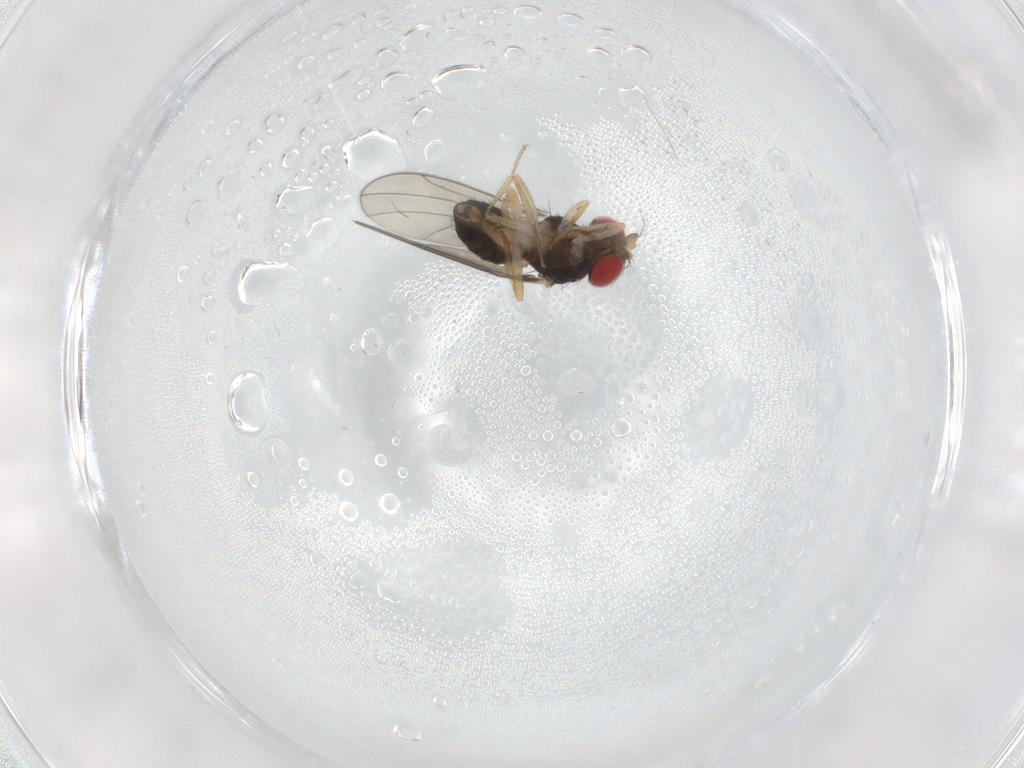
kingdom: Animalia
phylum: Arthropoda
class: Insecta
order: Diptera
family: Drosophilidae
